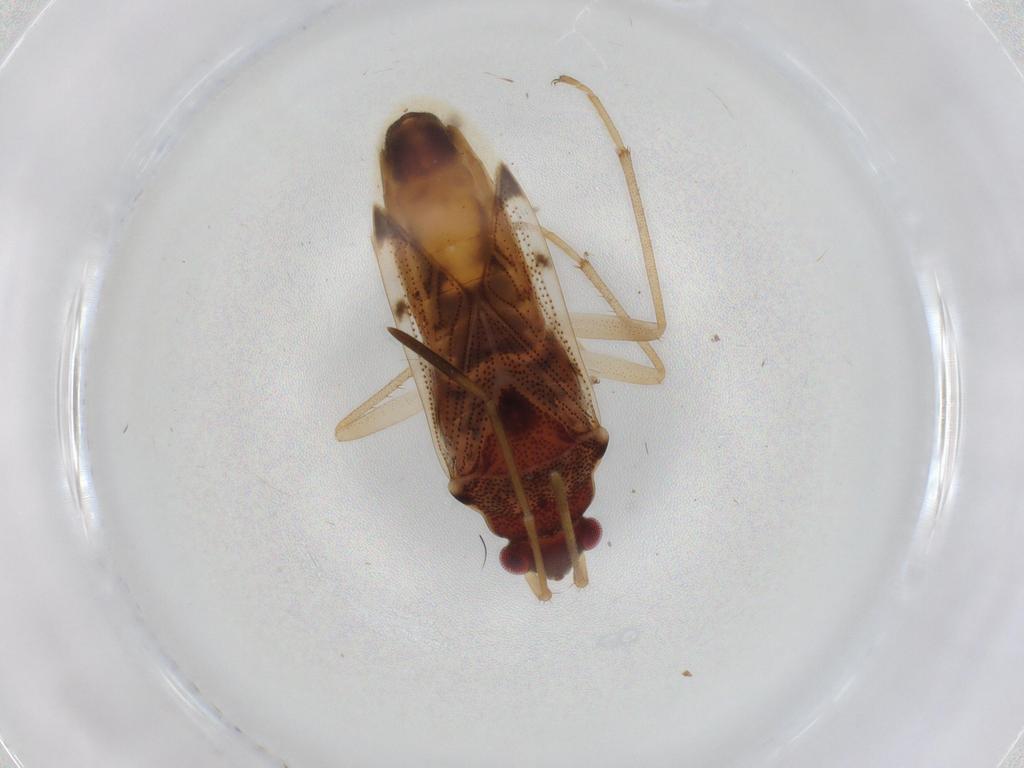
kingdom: Animalia
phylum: Arthropoda
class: Insecta
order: Hemiptera
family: Rhyparochromidae
